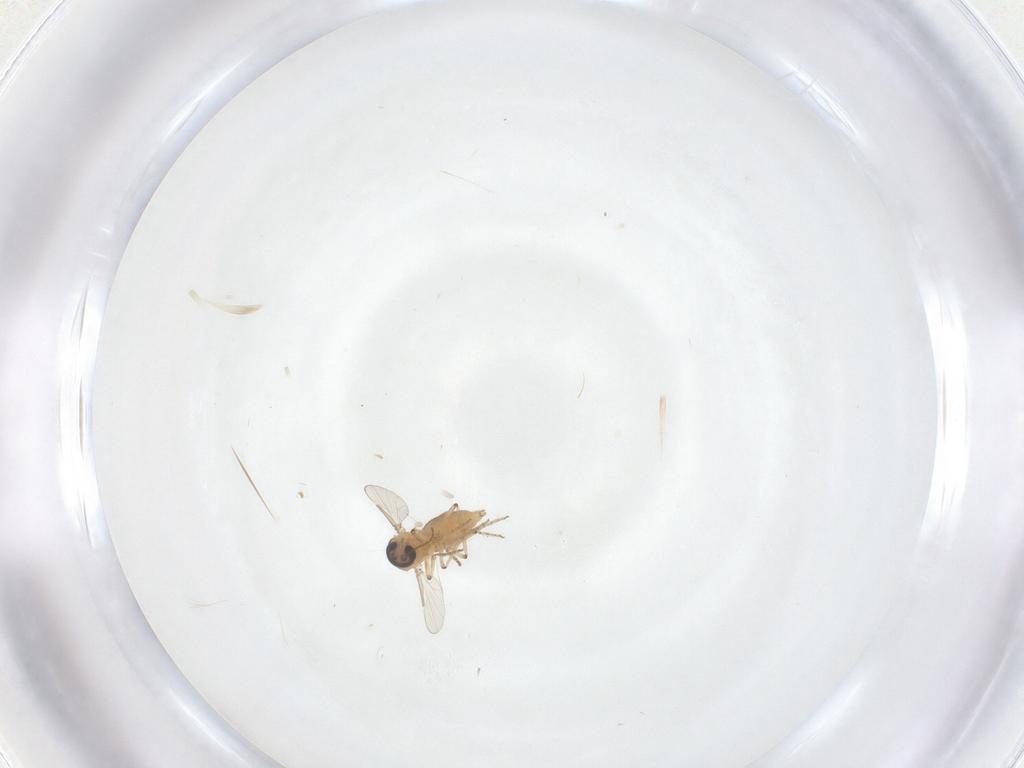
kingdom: Animalia
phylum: Arthropoda
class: Insecta
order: Diptera
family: Ceratopogonidae
